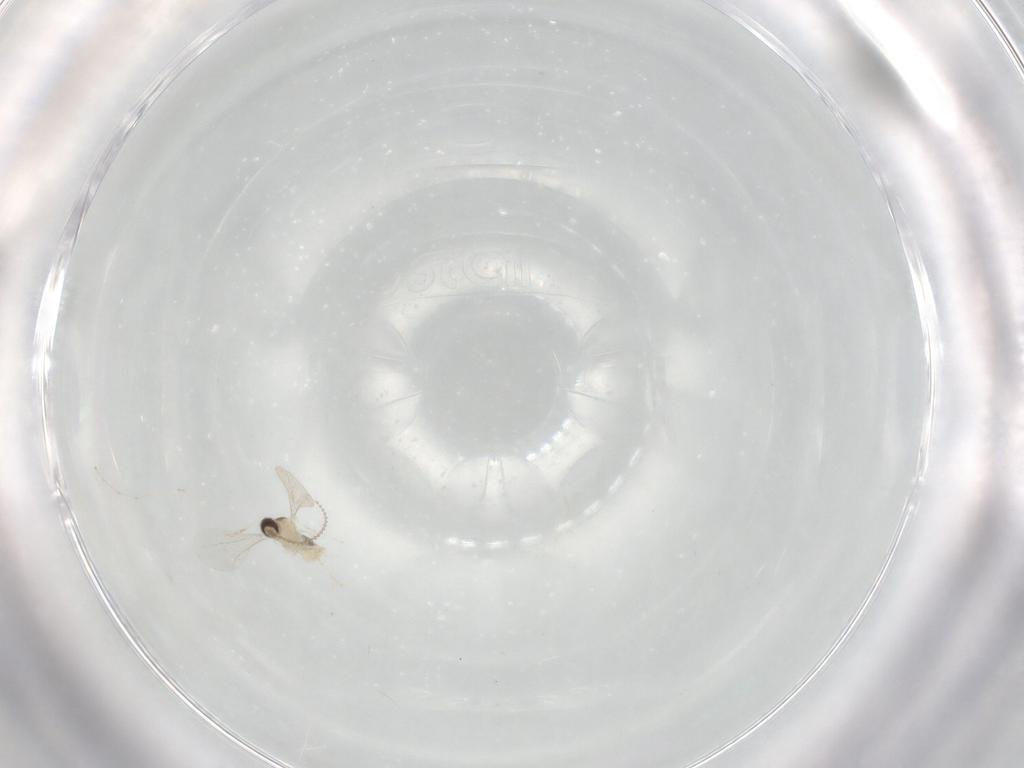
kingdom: Animalia
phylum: Arthropoda
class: Insecta
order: Diptera
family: Cecidomyiidae
